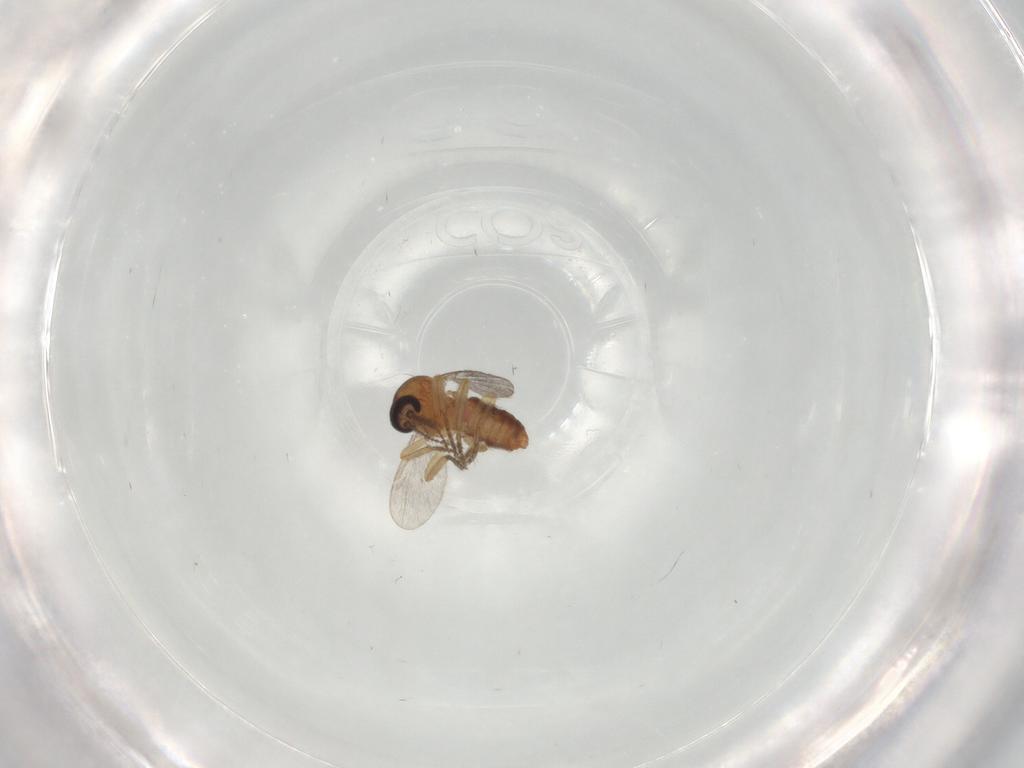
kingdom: Animalia
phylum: Arthropoda
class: Insecta
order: Diptera
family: Ceratopogonidae
